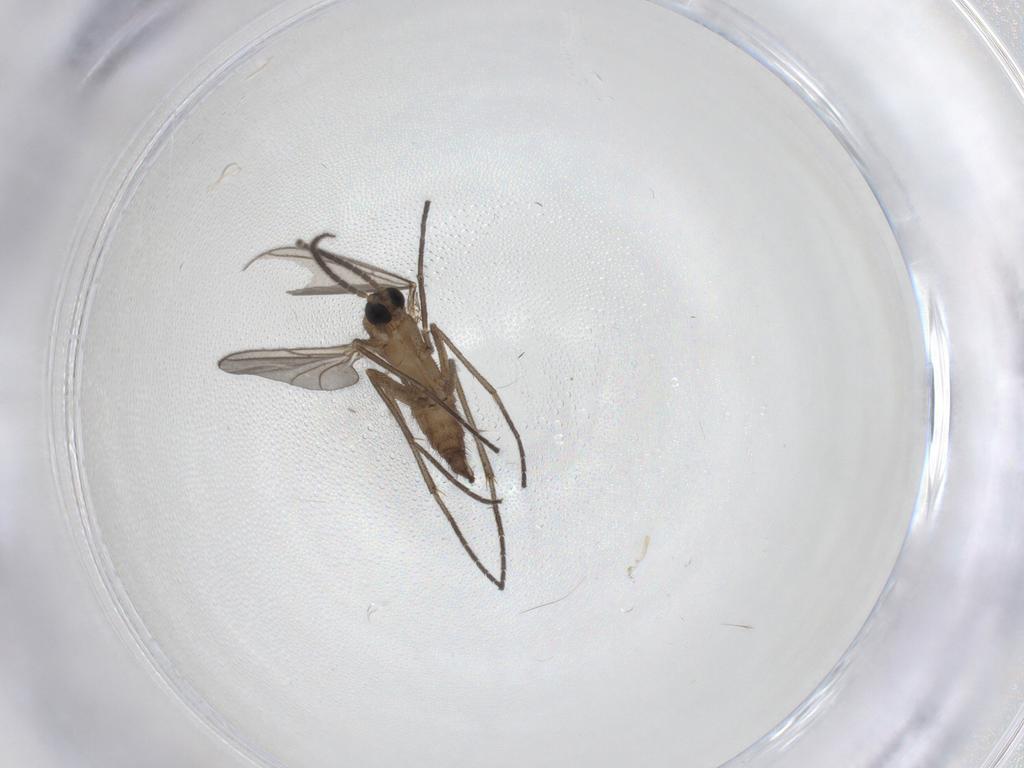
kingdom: Animalia
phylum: Arthropoda
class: Insecta
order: Diptera
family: Sciaridae
